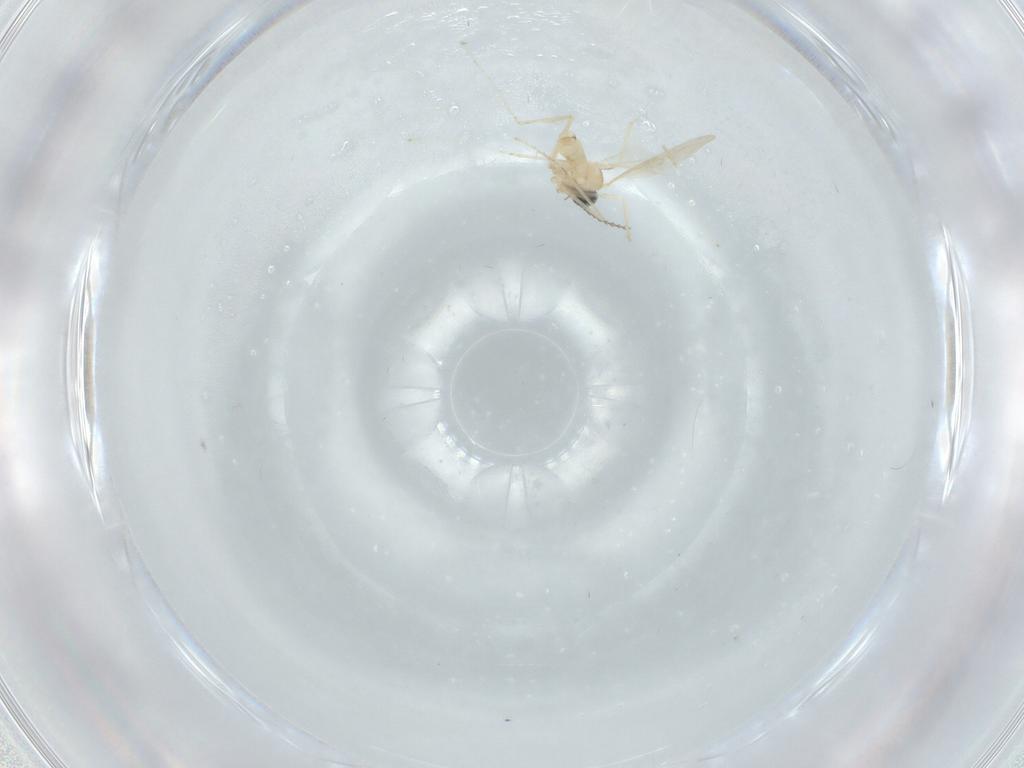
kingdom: Animalia
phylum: Arthropoda
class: Insecta
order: Diptera
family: Cecidomyiidae
